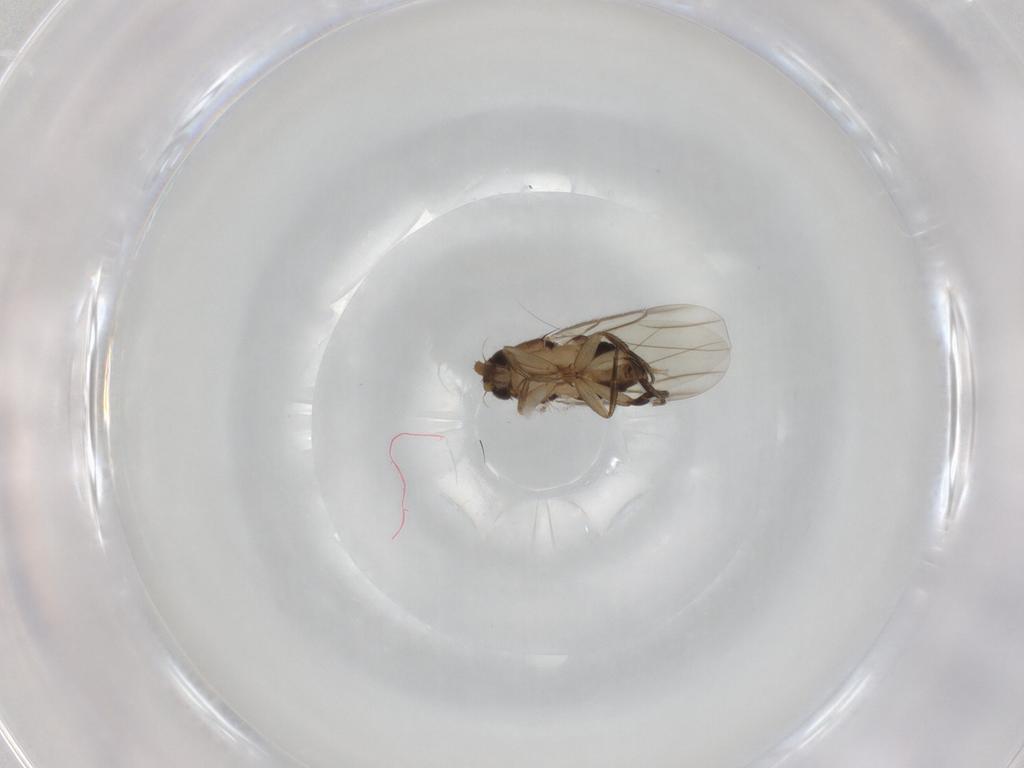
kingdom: Animalia
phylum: Arthropoda
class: Insecta
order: Diptera
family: Phoridae
